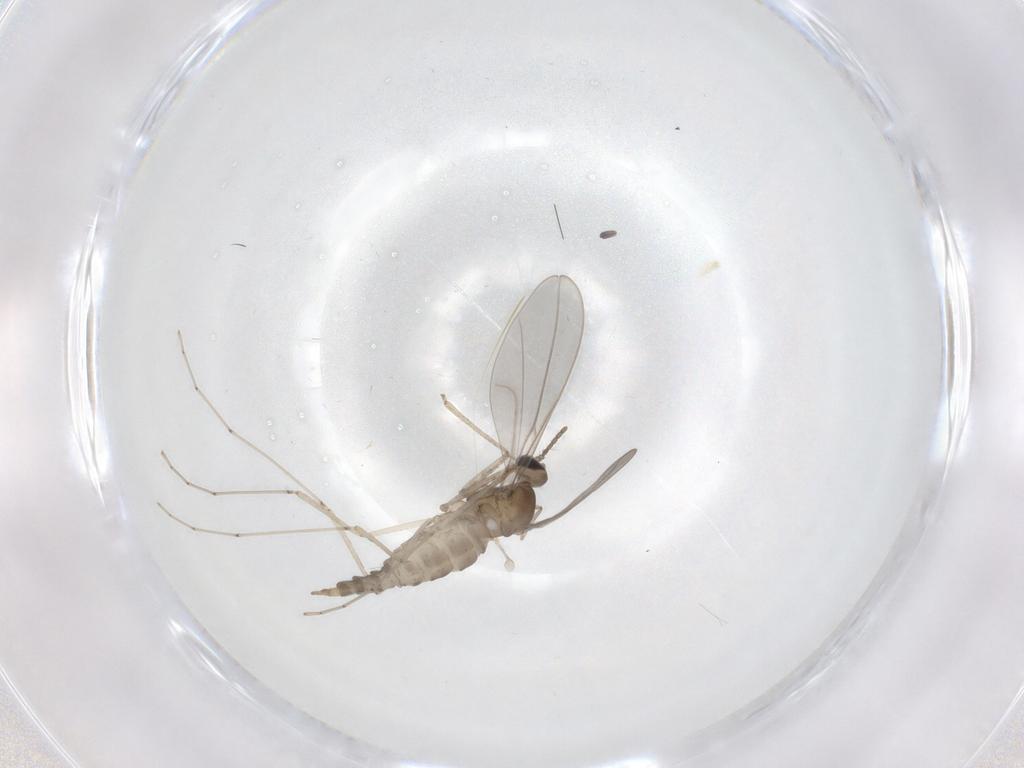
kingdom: Animalia
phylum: Arthropoda
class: Insecta
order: Diptera
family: Cecidomyiidae
